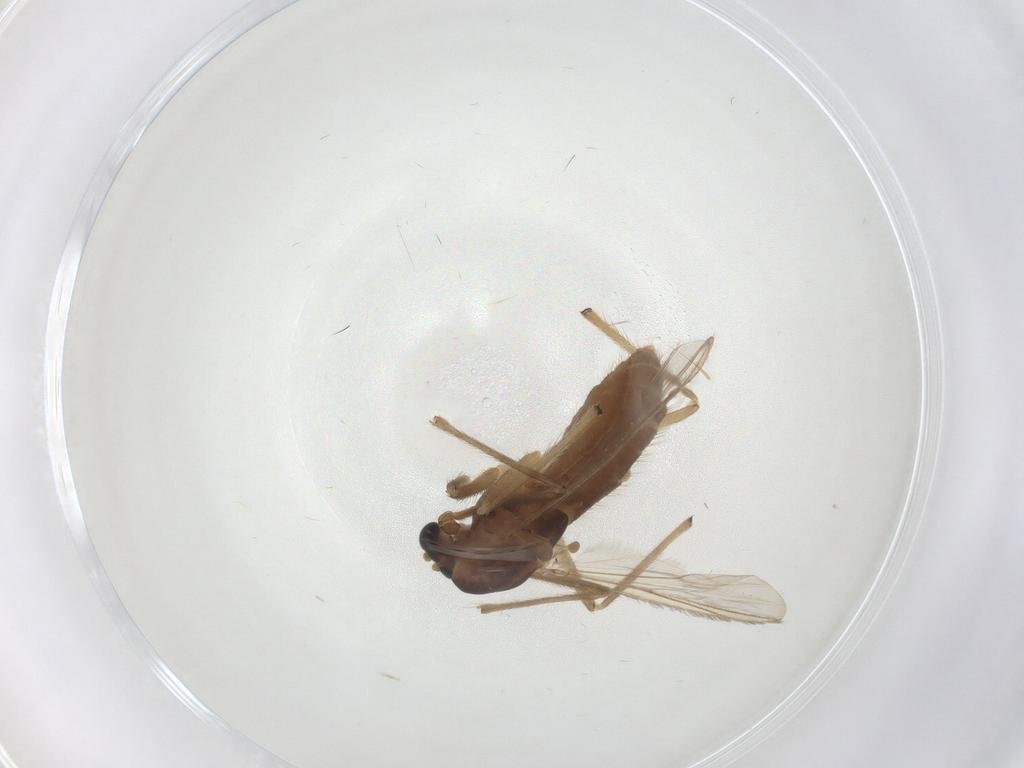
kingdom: Animalia
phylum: Arthropoda
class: Insecta
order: Diptera
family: Chironomidae
